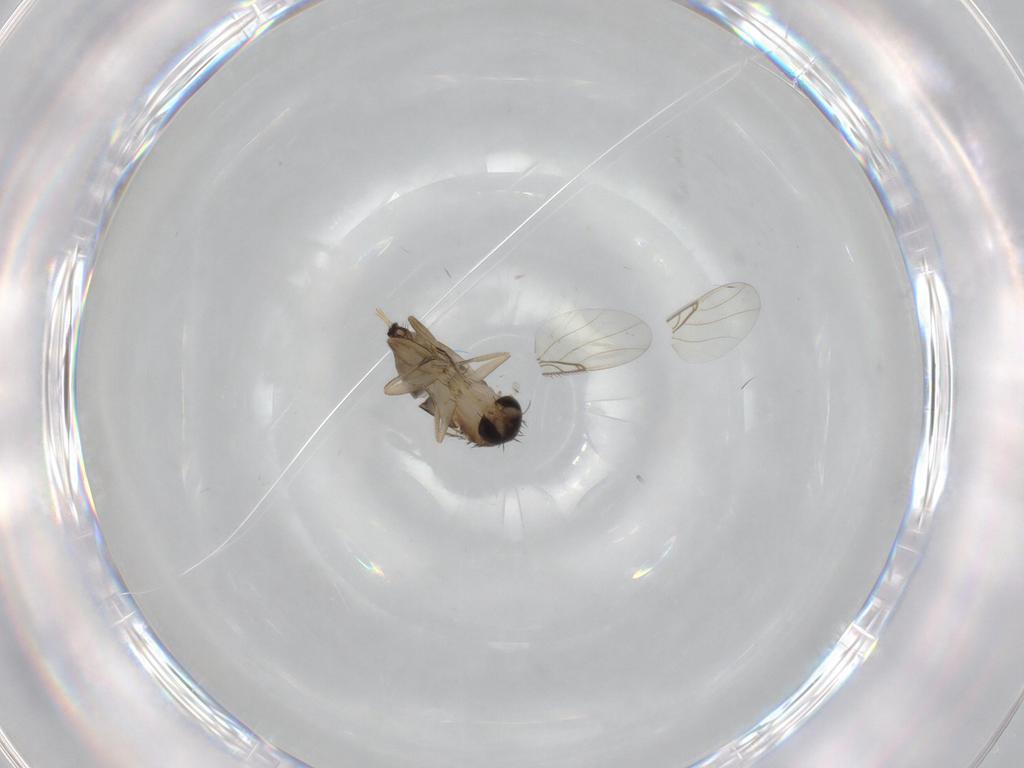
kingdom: Animalia
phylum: Arthropoda
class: Insecta
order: Diptera
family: Phoridae
